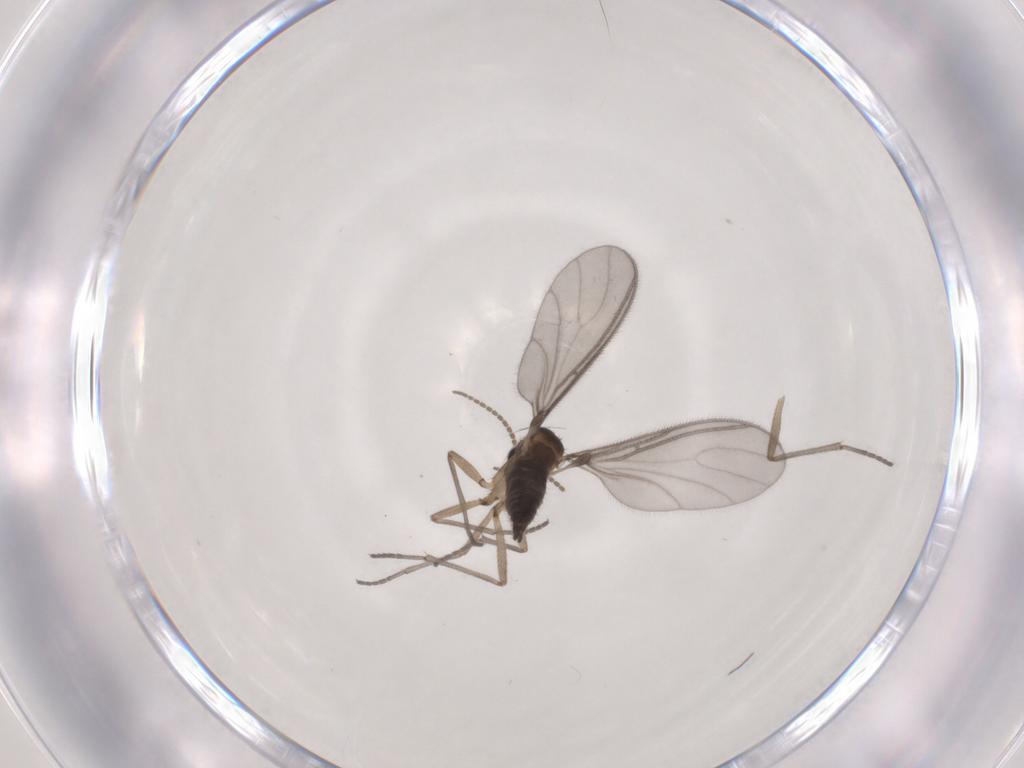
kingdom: Animalia
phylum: Arthropoda
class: Insecta
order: Diptera
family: Sciaridae
